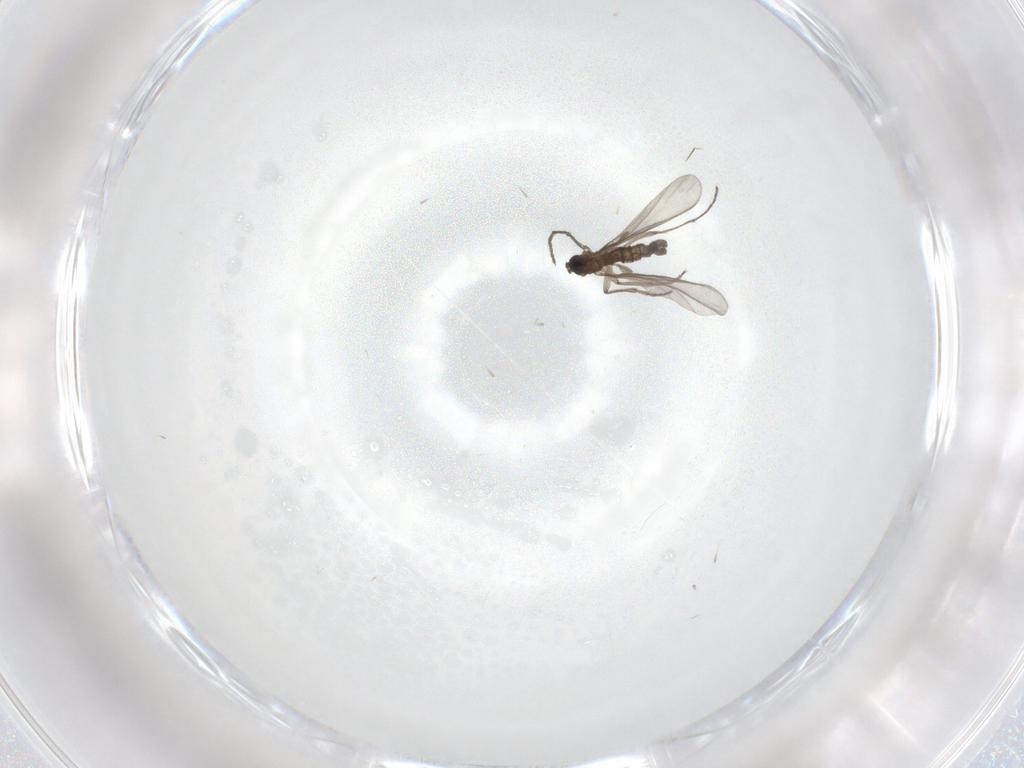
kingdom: Animalia
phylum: Arthropoda
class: Insecta
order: Diptera
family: Sciaridae
